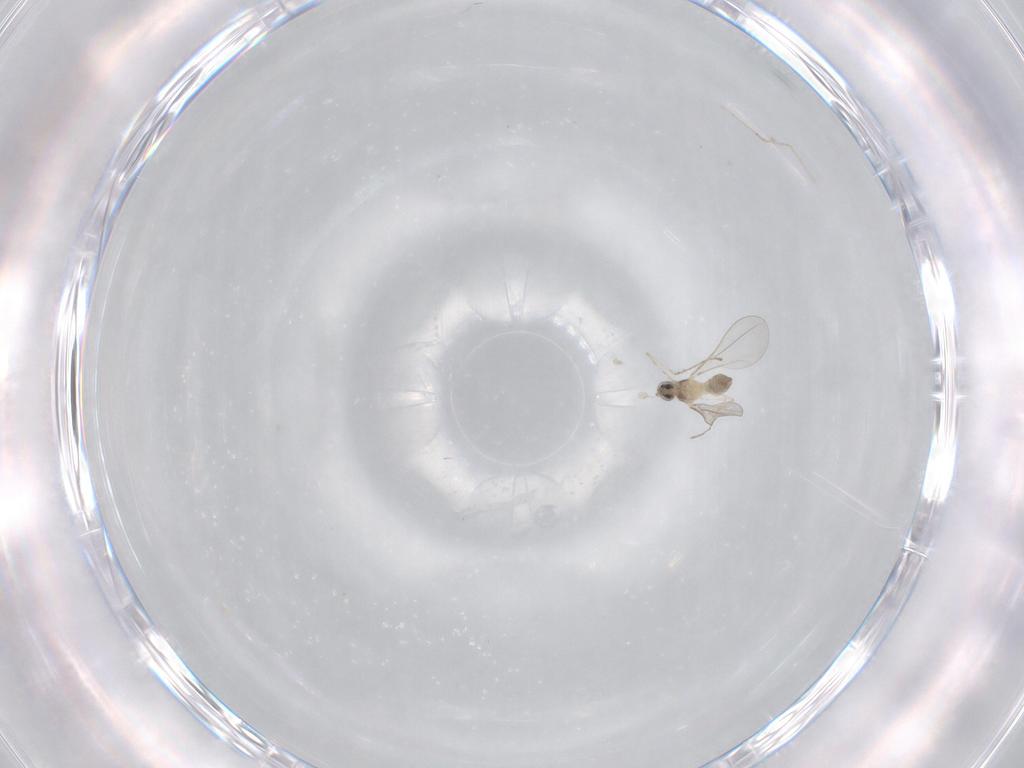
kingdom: Animalia
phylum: Arthropoda
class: Insecta
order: Diptera
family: Cecidomyiidae
